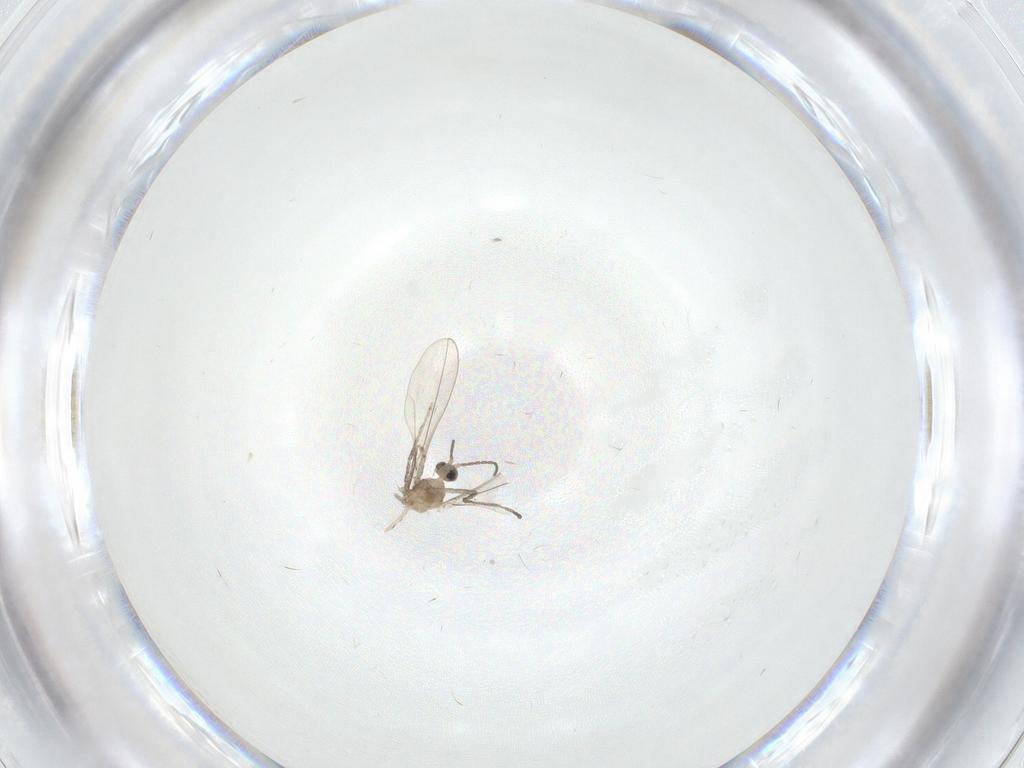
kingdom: Animalia
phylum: Arthropoda
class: Insecta
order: Diptera
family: Cecidomyiidae
